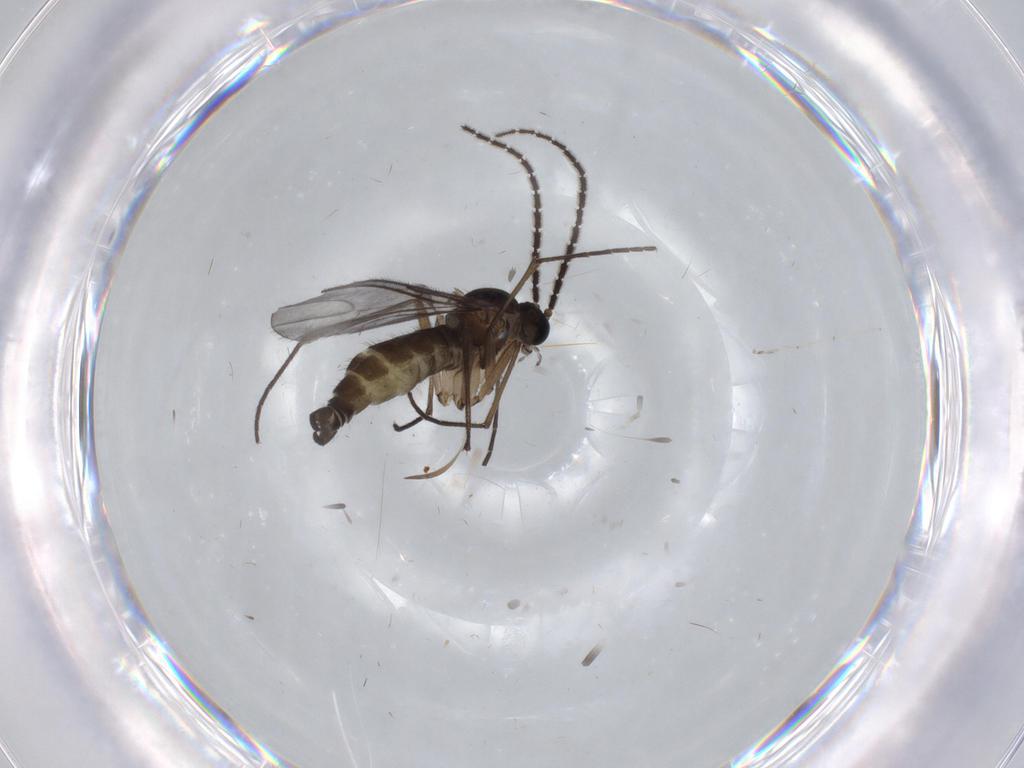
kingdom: Animalia
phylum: Arthropoda
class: Insecta
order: Diptera
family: Cecidomyiidae
